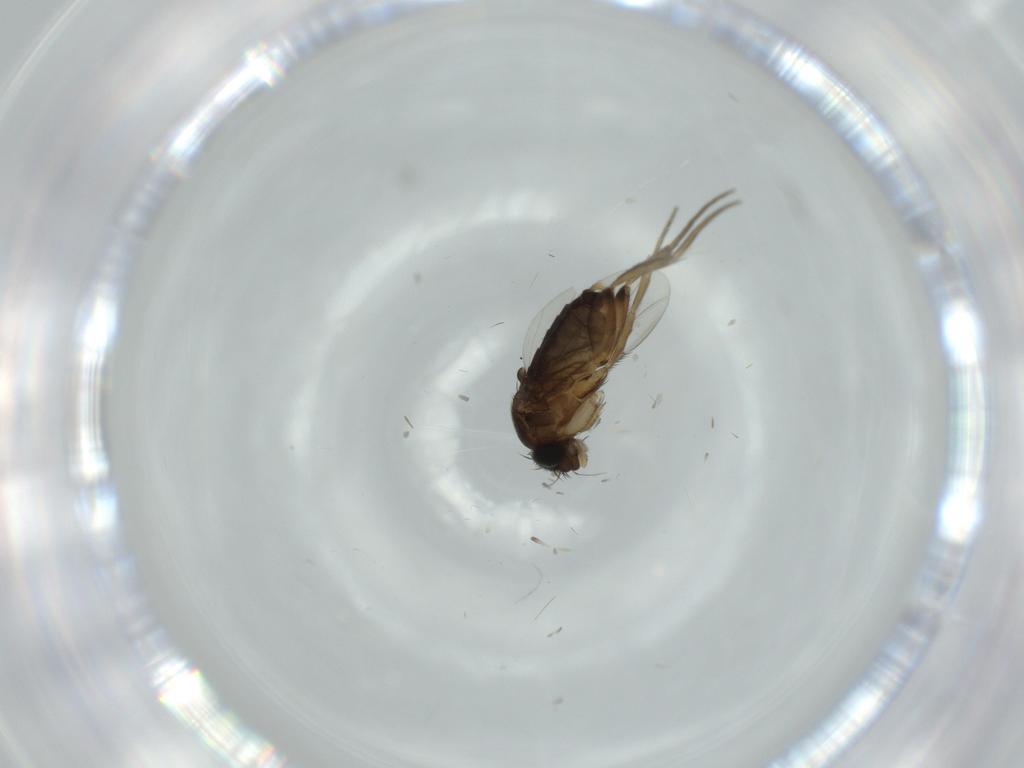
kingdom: Animalia
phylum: Arthropoda
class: Insecta
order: Diptera
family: Phoridae
